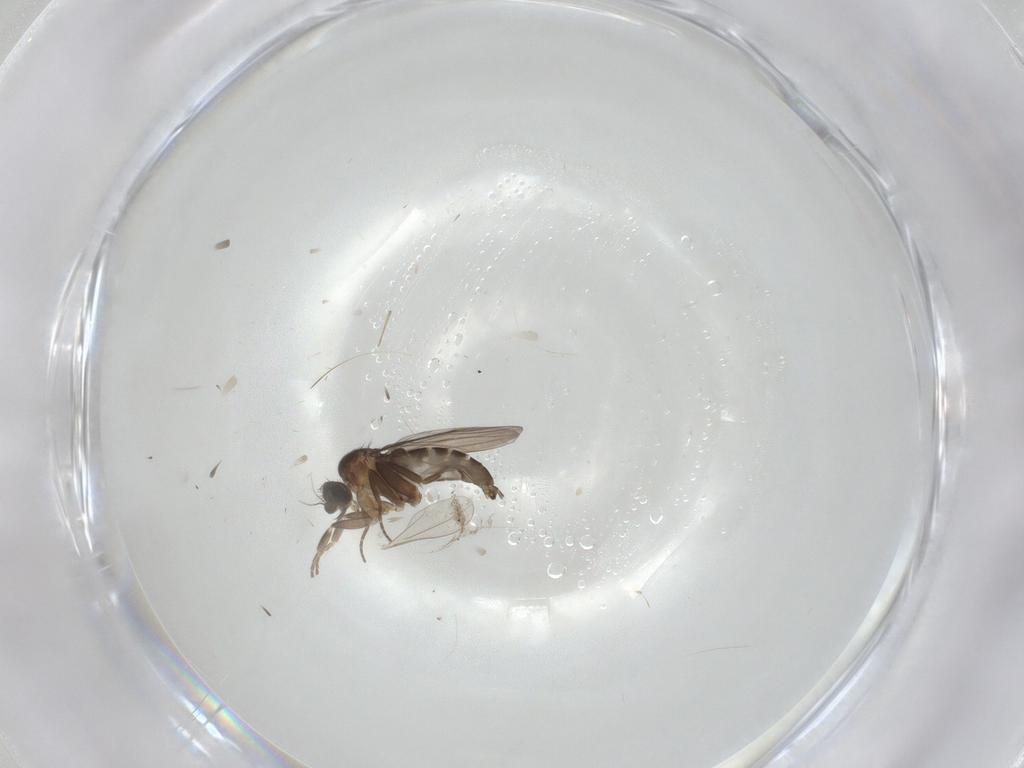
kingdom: Animalia
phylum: Arthropoda
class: Insecta
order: Diptera
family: Phoridae
